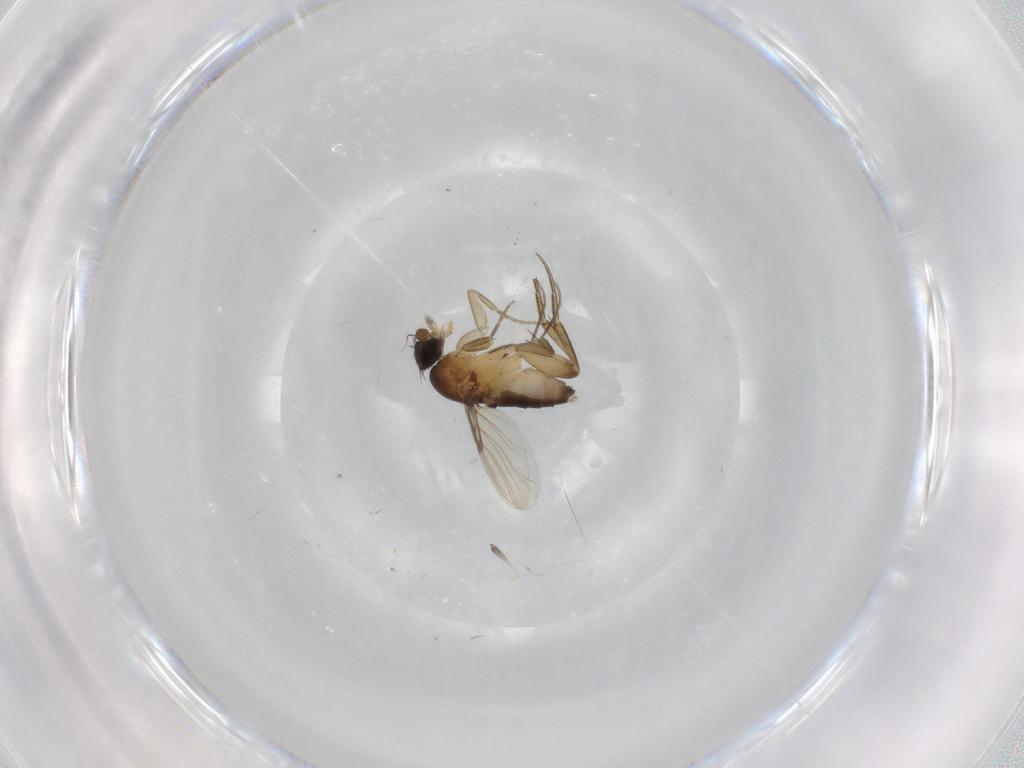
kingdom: Animalia
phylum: Arthropoda
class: Insecta
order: Diptera
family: Phoridae
